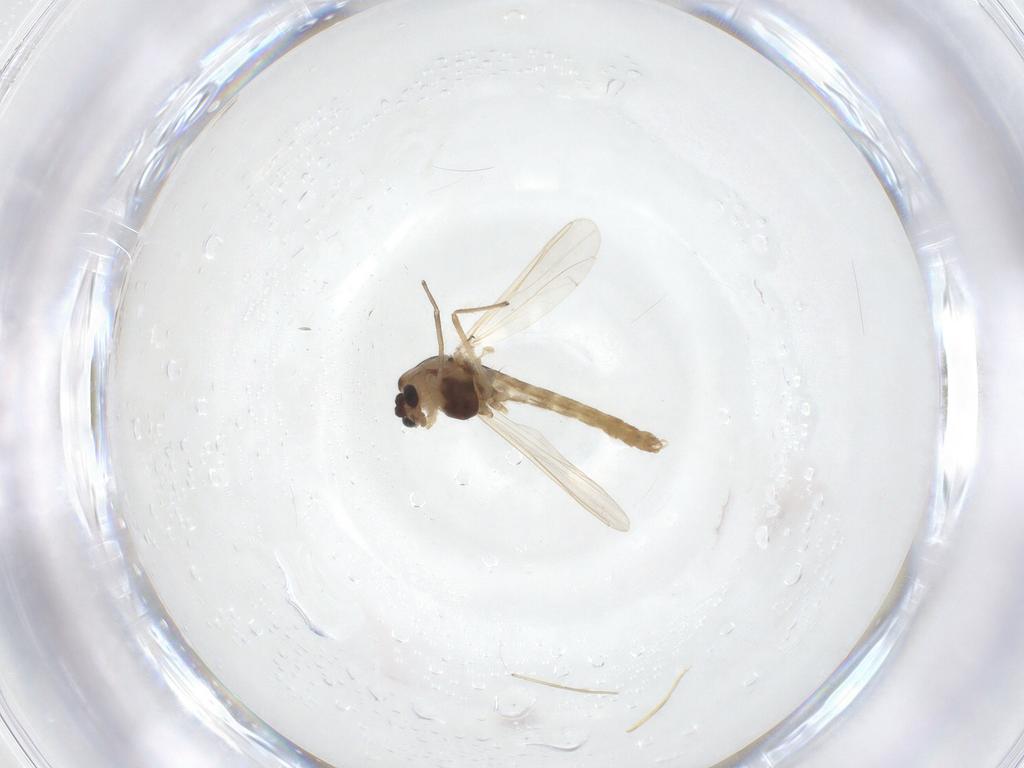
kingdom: Animalia
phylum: Arthropoda
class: Insecta
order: Diptera
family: Chironomidae
